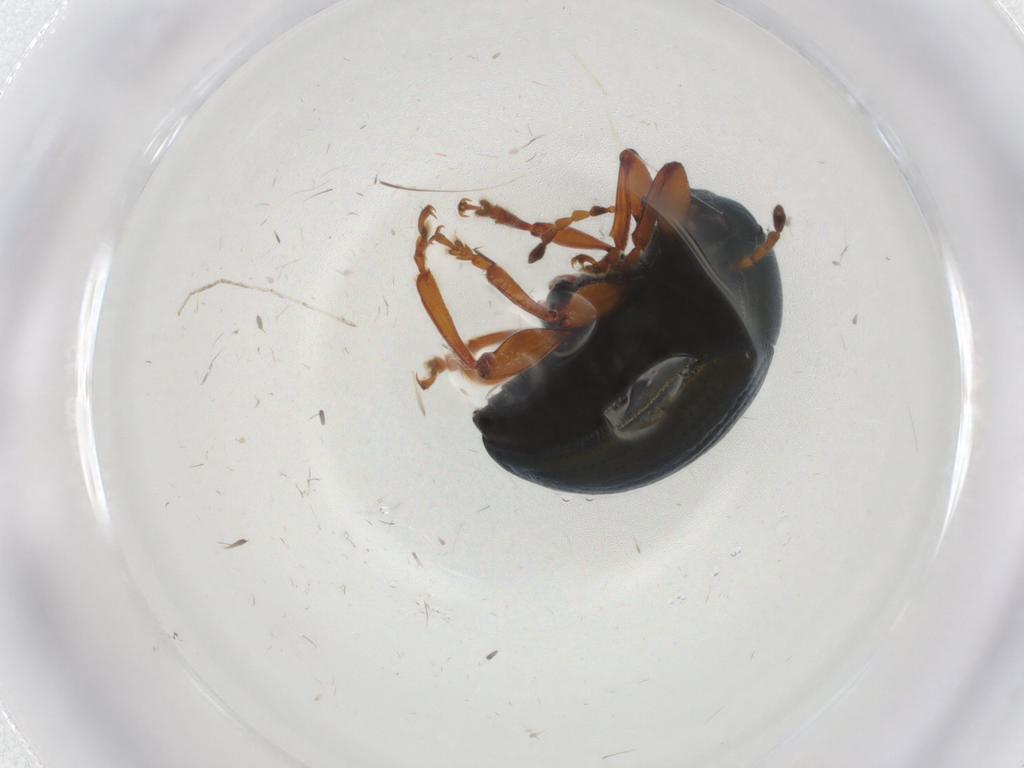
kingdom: Animalia
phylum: Arthropoda
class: Insecta
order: Coleoptera
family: Chrysomelidae
